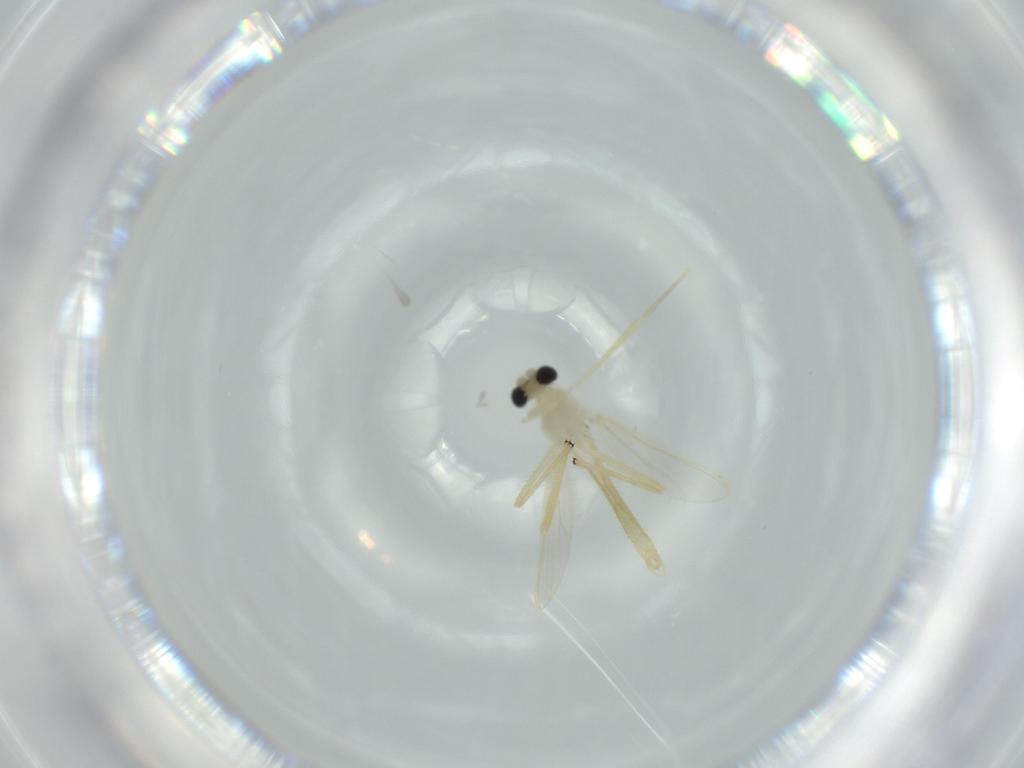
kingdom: Animalia
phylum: Arthropoda
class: Insecta
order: Diptera
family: Chironomidae
